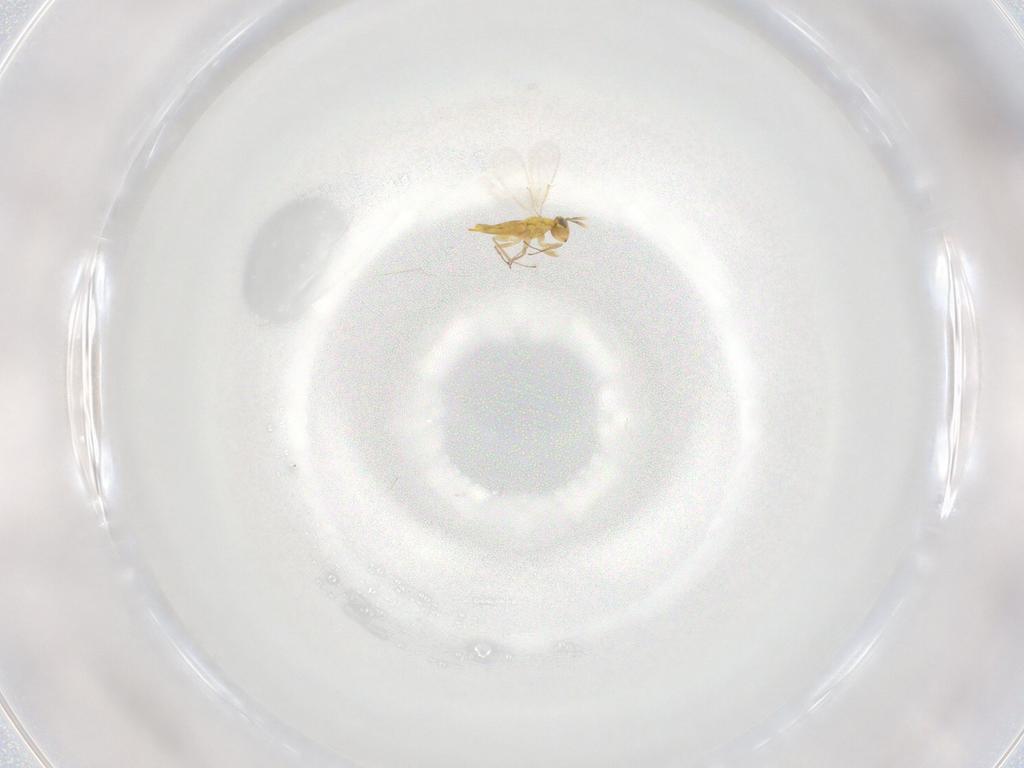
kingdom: Animalia
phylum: Arthropoda
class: Insecta
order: Hymenoptera
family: Aphelinidae
